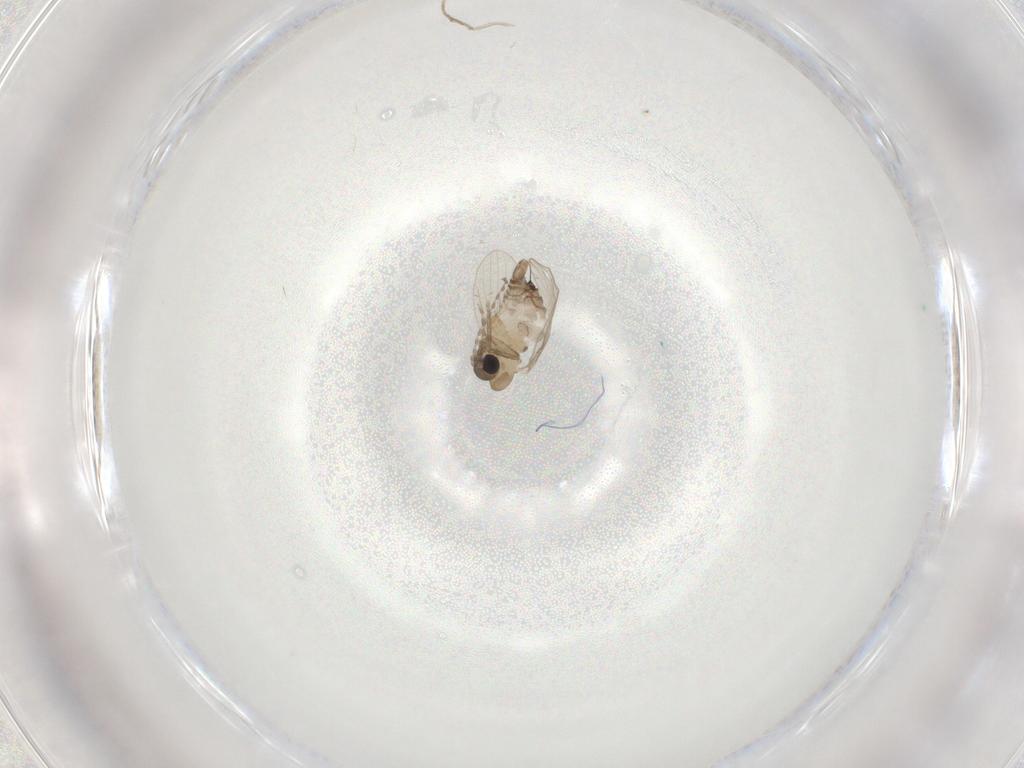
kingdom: Animalia
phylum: Arthropoda
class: Insecta
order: Diptera
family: Psychodidae
